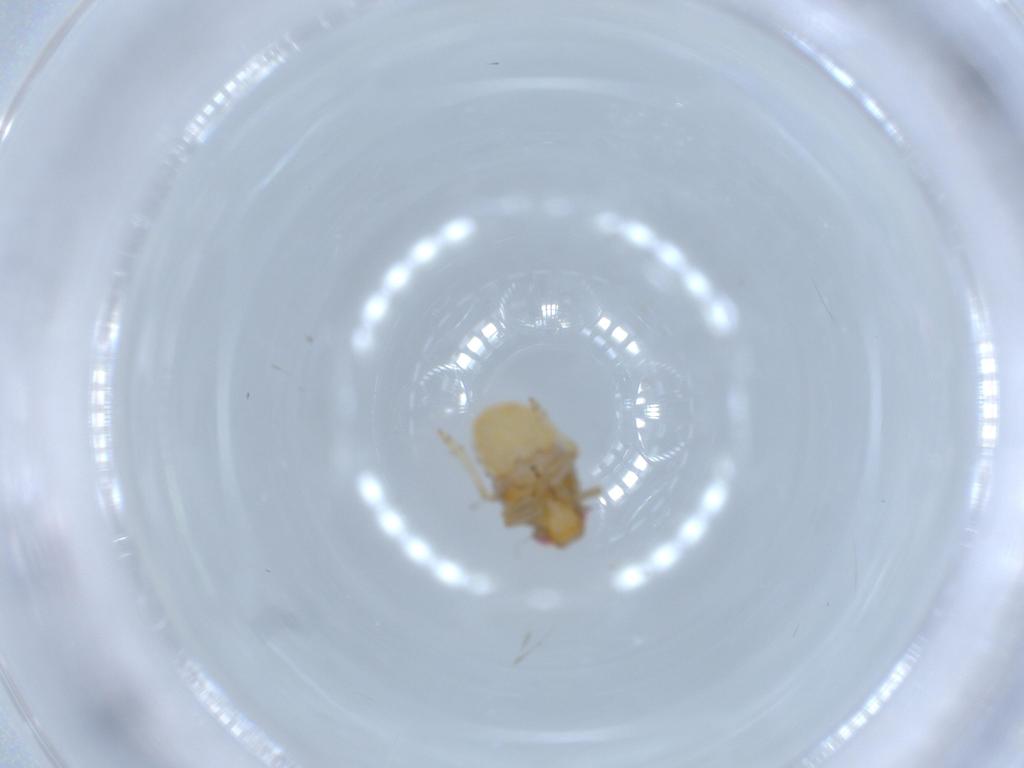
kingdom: Animalia
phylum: Arthropoda
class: Insecta
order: Hemiptera
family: Issidae
